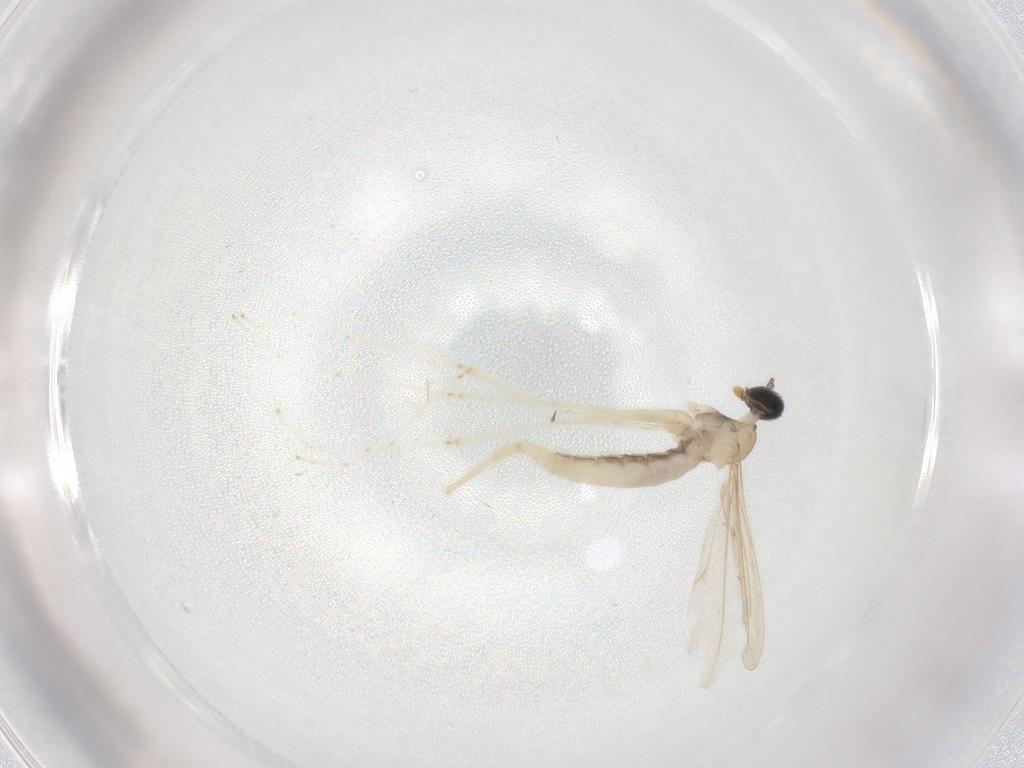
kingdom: Animalia
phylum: Arthropoda
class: Insecta
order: Diptera
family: Cecidomyiidae
